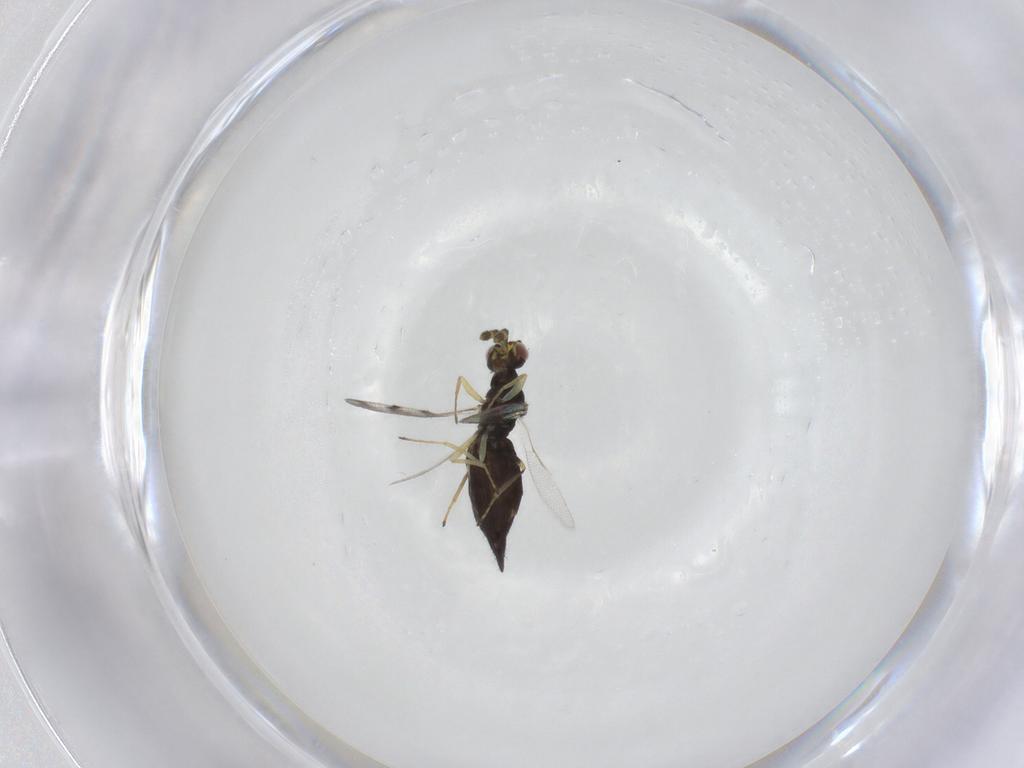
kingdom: Animalia
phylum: Arthropoda
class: Insecta
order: Hymenoptera
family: Eulophidae
